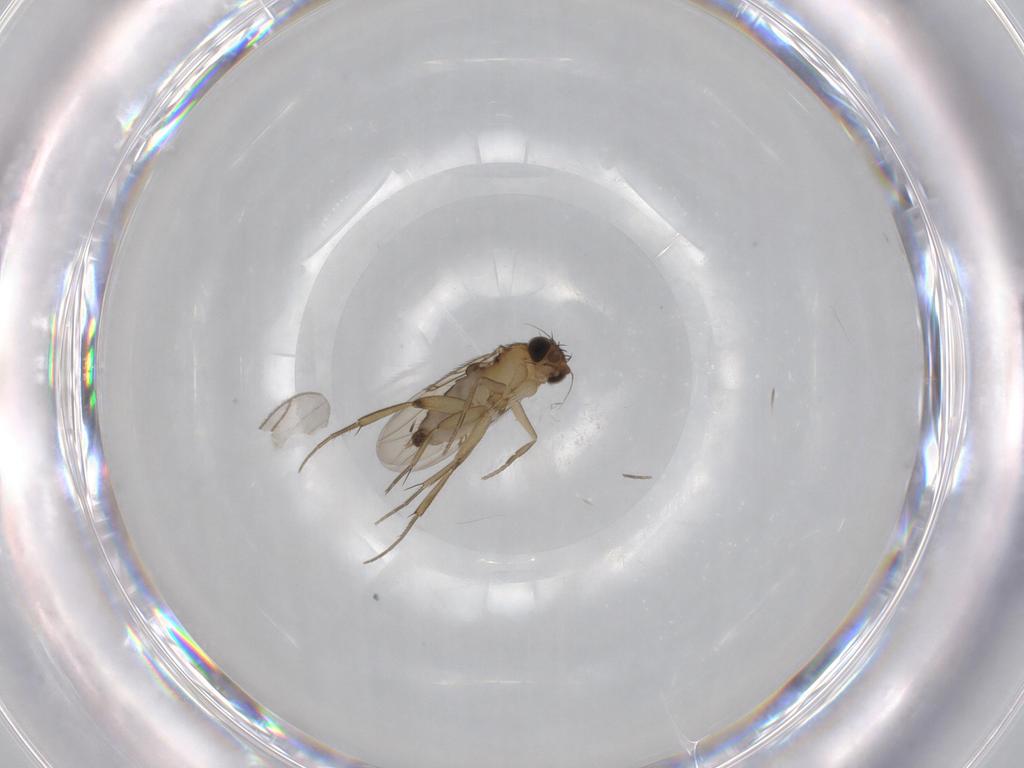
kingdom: Animalia
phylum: Arthropoda
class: Insecta
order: Diptera
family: Phoridae
